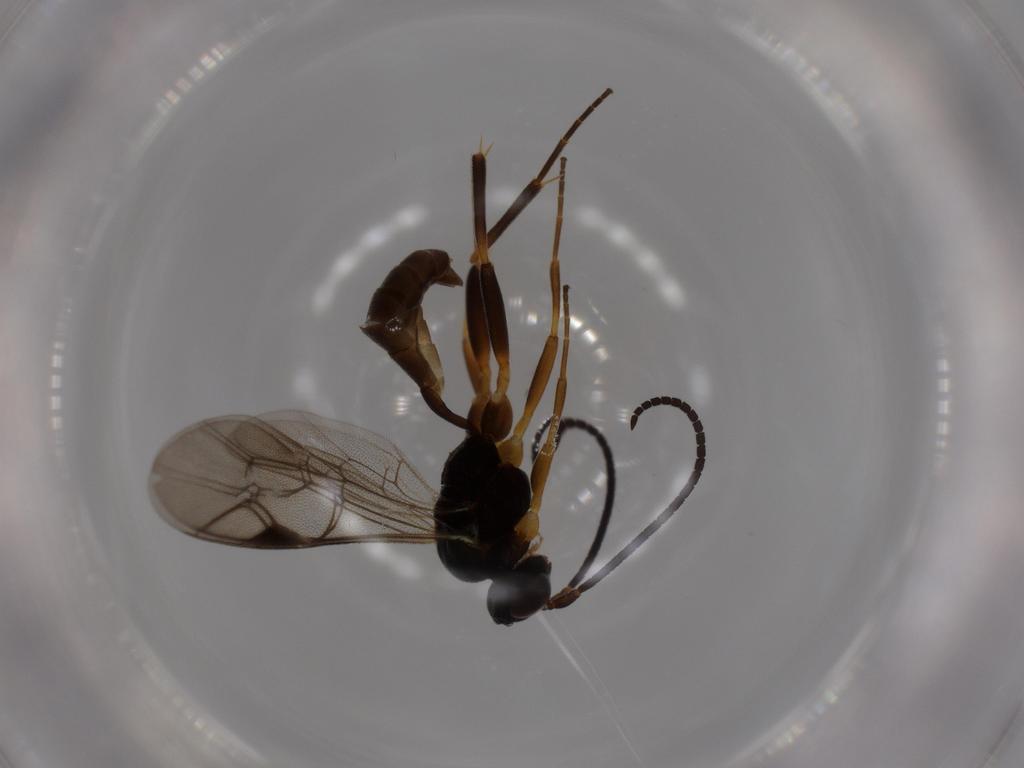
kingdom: Animalia
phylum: Arthropoda
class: Insecta
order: Hymenoptera
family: Ichneumonidae
